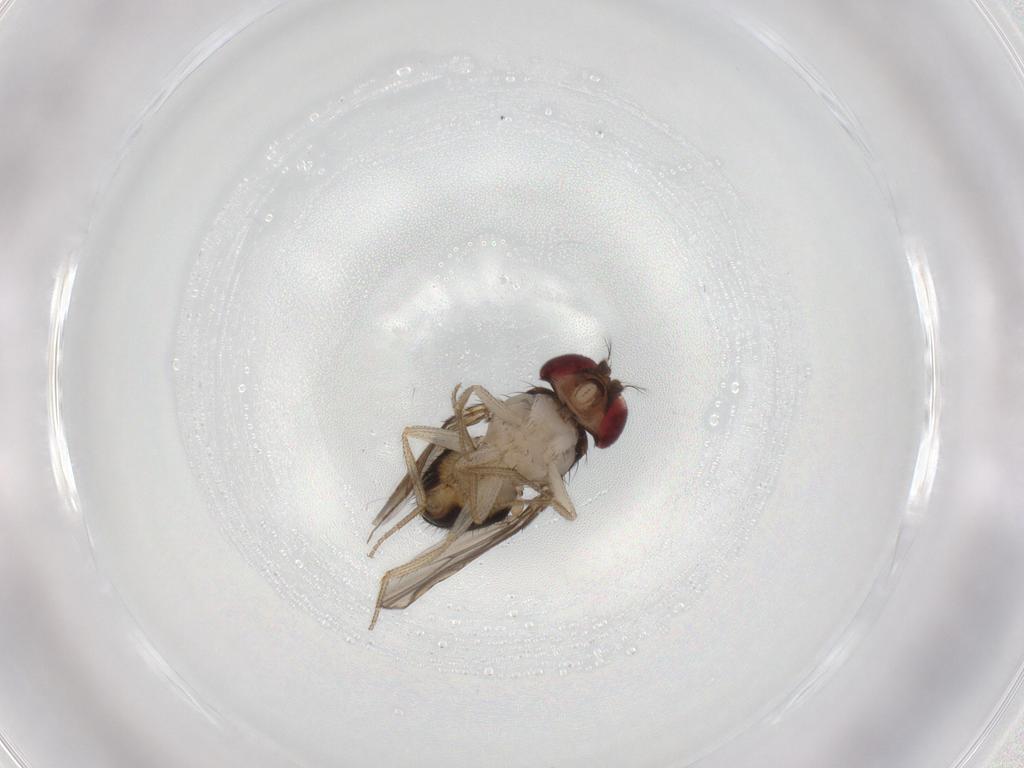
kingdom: Animalia
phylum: Arthropoda
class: Insecta
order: Diptera
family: Drosophilidae
